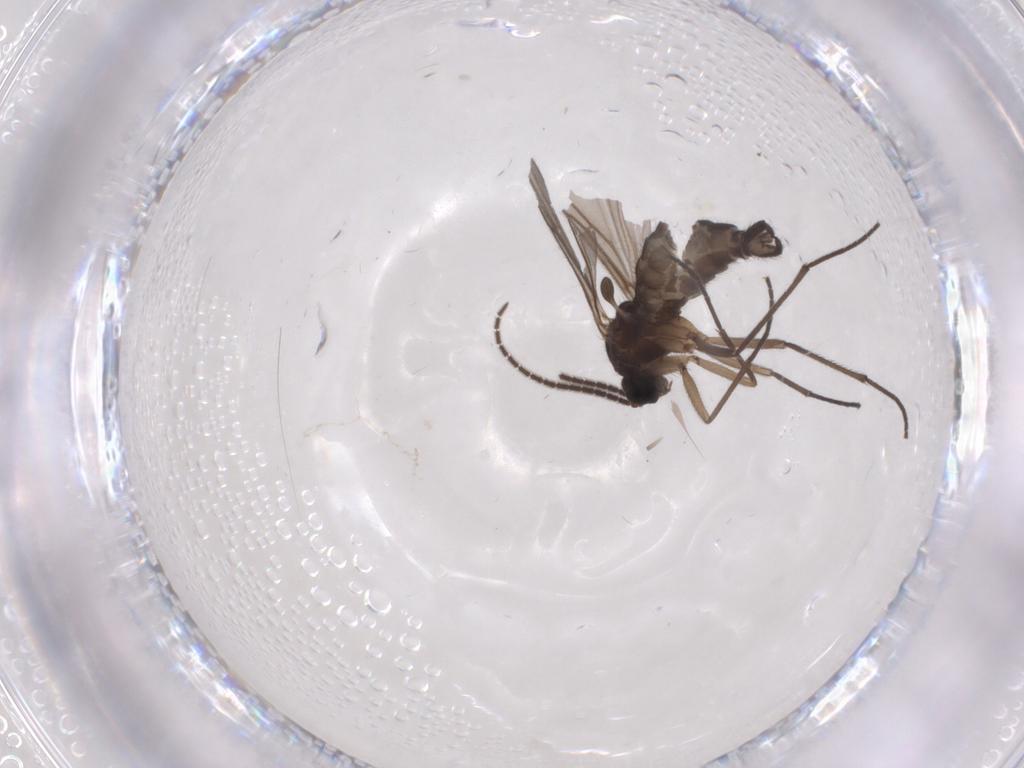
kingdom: Animalia
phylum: Arthropoda
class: Insecta
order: Diptera
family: Sciaridae
